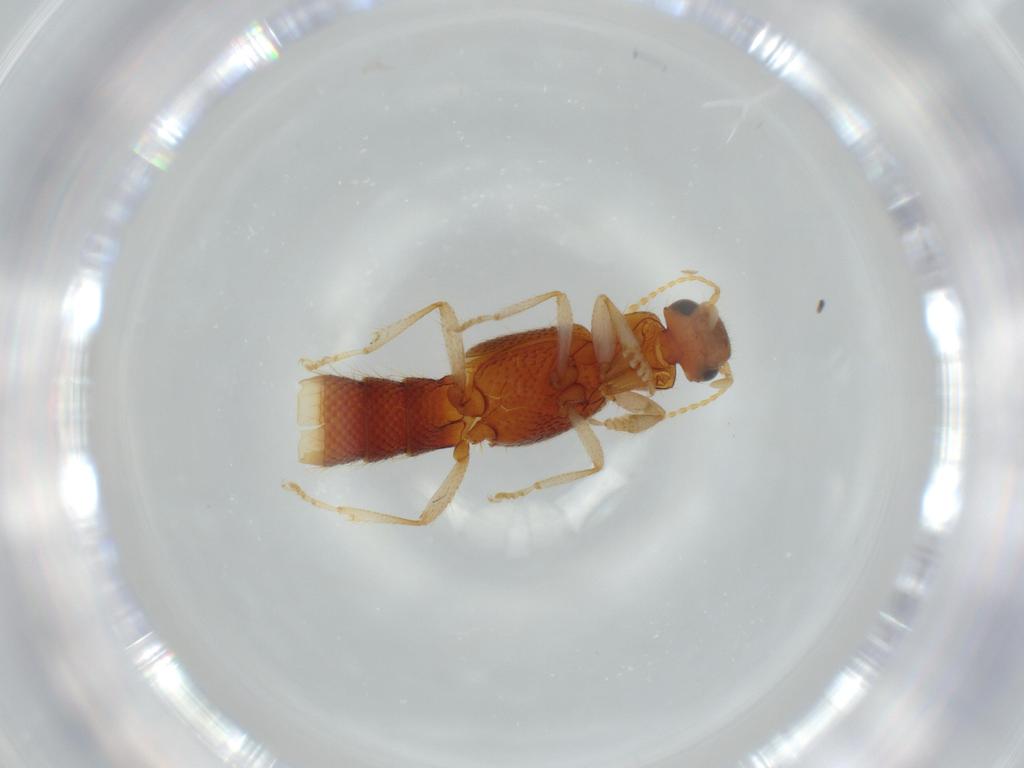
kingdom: Animalia
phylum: Arthropoda
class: Insecta
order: Coleoptera
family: Staphylinidae
